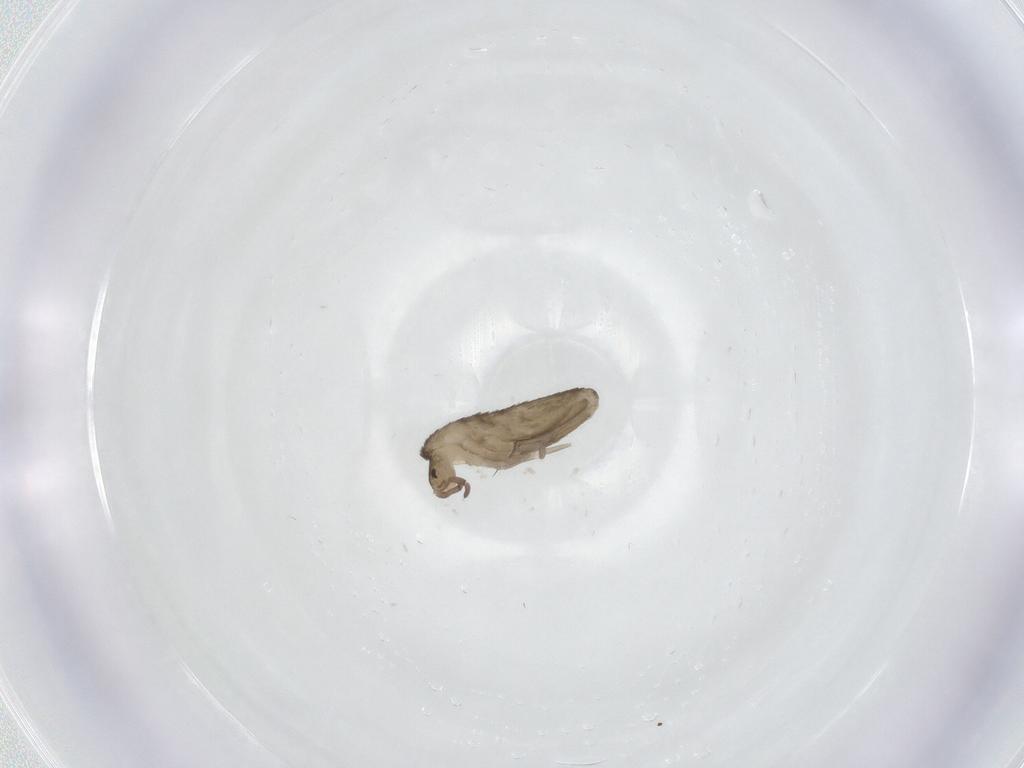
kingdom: Animalia
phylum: Arthropoda
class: Collembola
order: Entomobryomorpha
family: Entomobryidae
